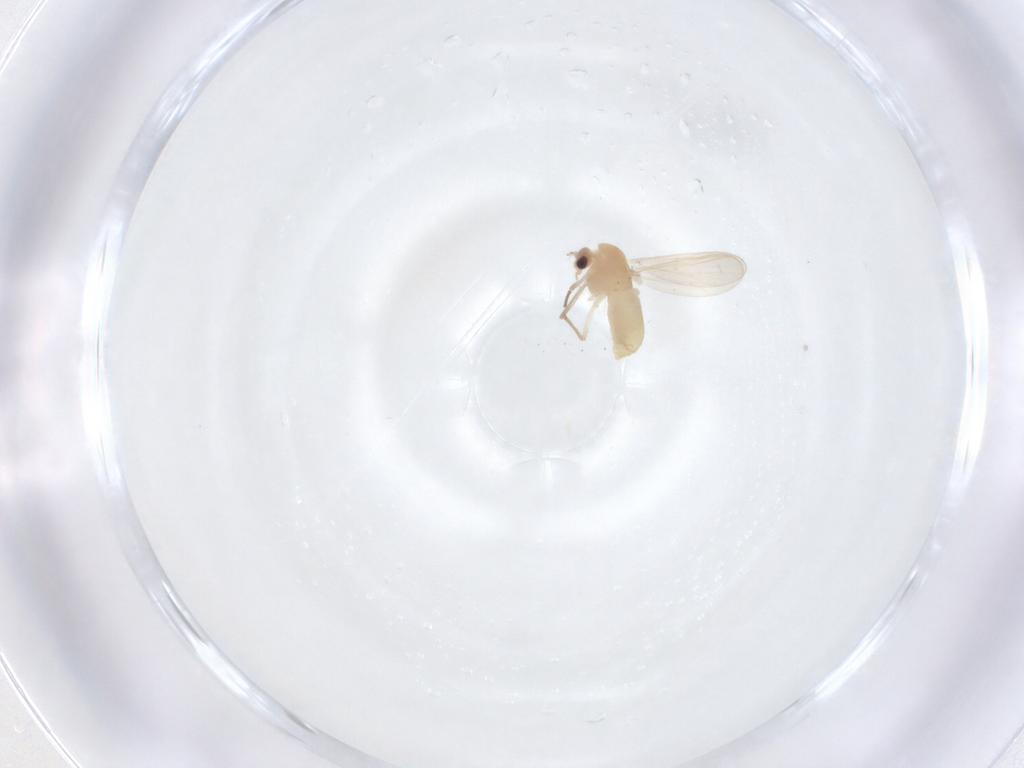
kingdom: Animalia
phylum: Arthropoda
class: Insecta
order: Diptera
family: Chironomidae
